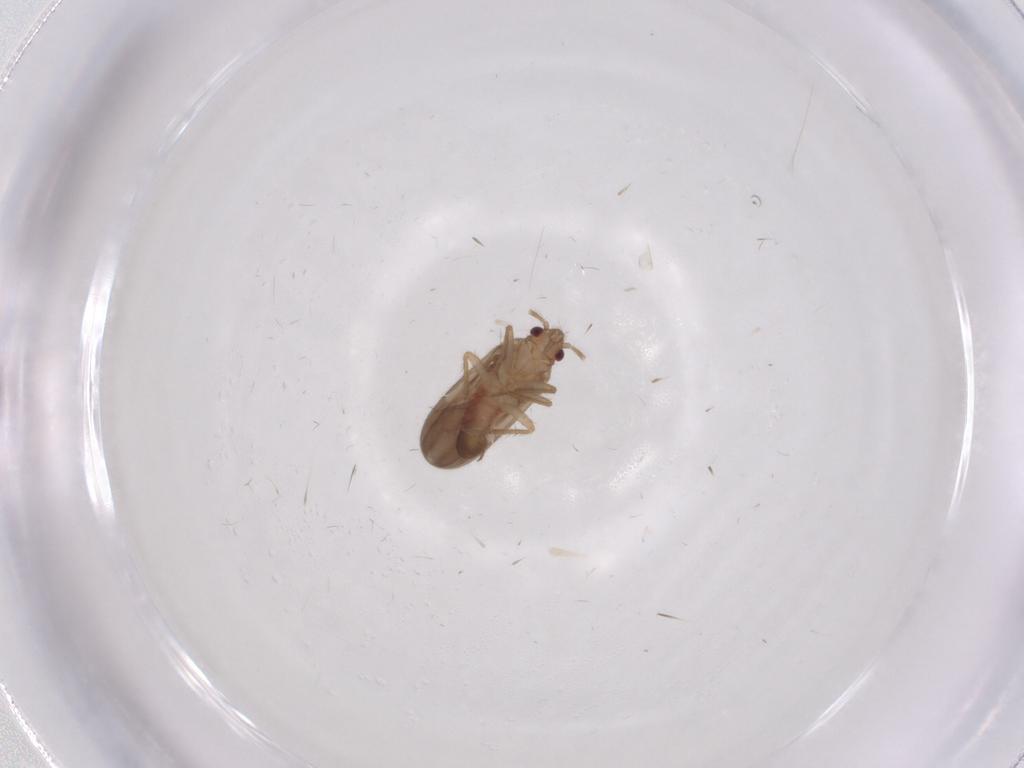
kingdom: Animalia
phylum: Arthropoda
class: Insecta
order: Hemiptera
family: Ceratocombidae
